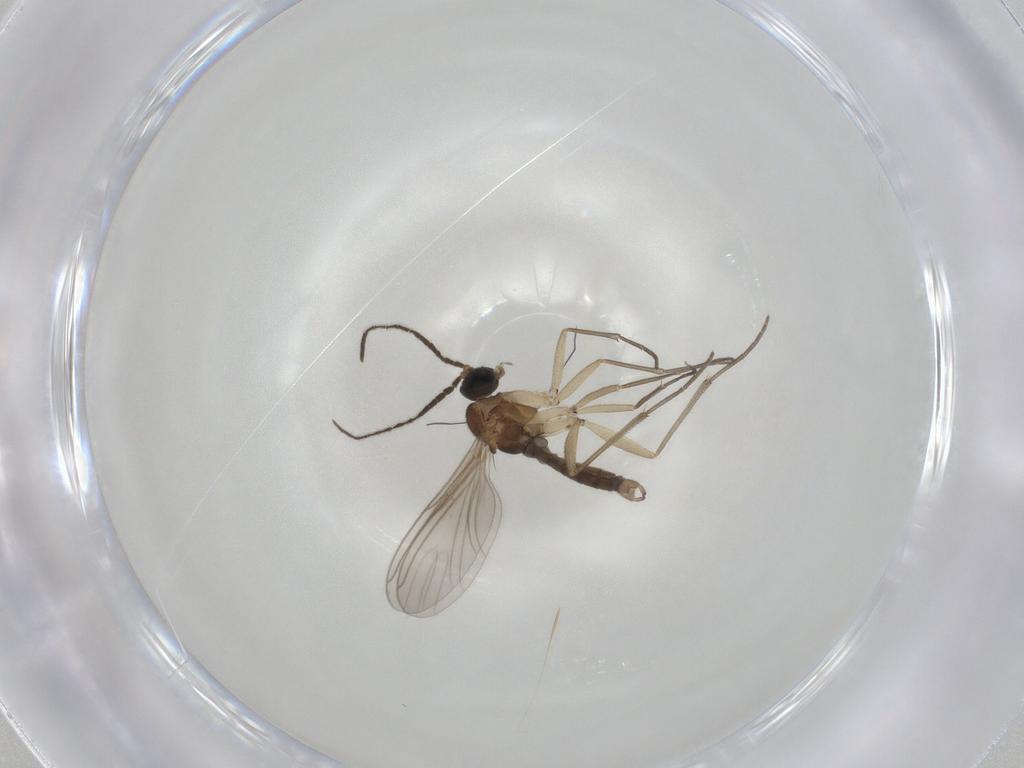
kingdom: Animalia
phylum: Arthropoda
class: Insecta
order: Diptera
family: Sciaridae
